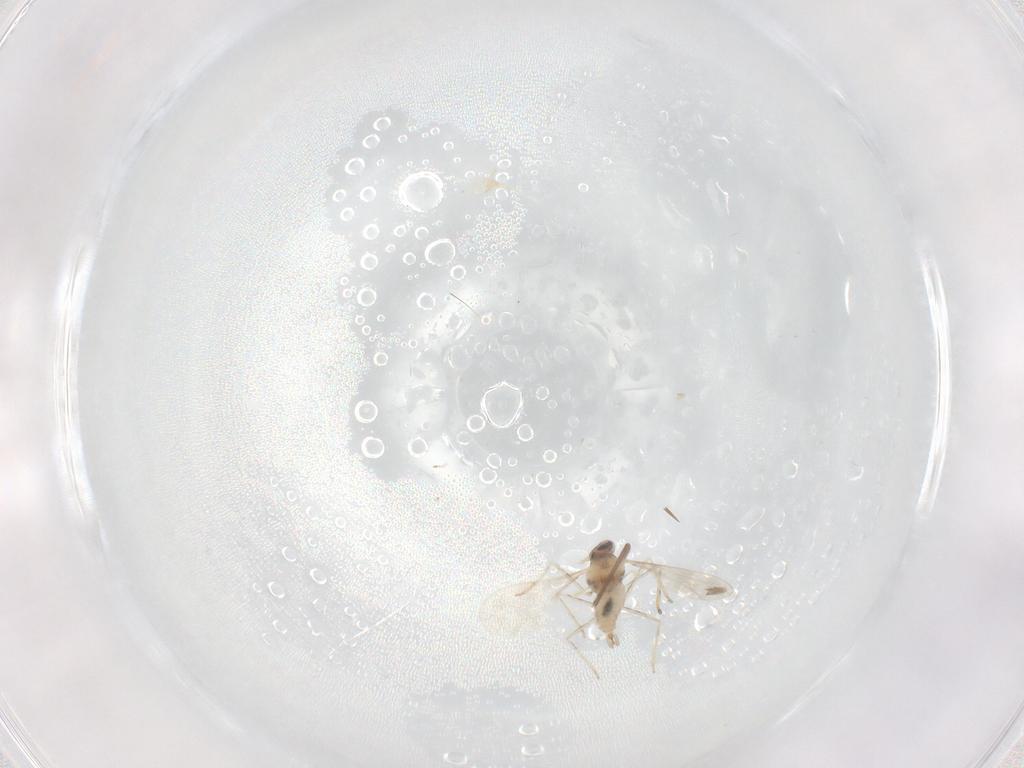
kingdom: Animalia
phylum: Arthropoda
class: Insecta
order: Diptera
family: Cecidomyiidae
